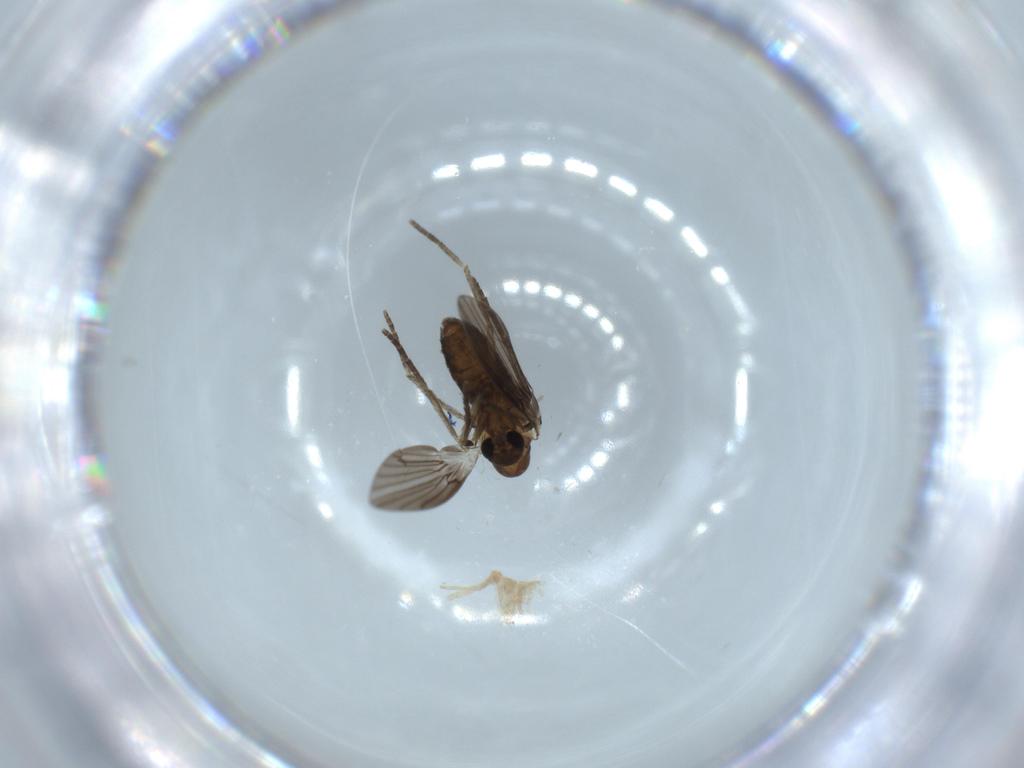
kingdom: Animalia
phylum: Arthropoda
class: Insecta
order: Diptera
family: Psychodidae
